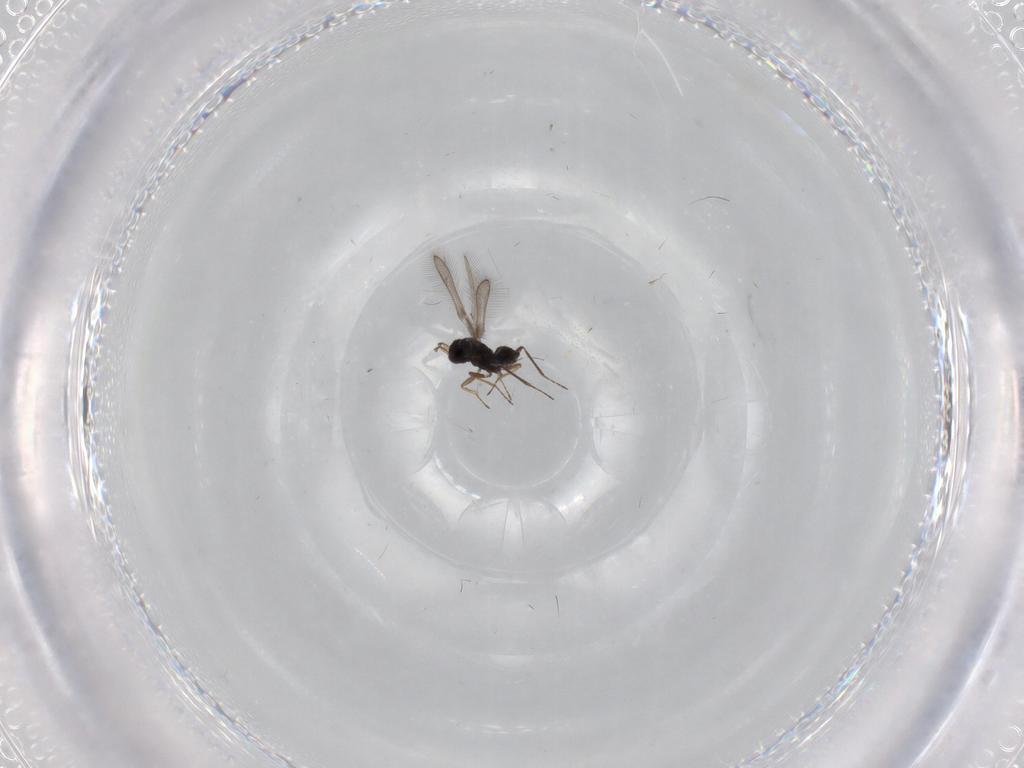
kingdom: Animalia
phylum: Arthropoda
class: Insecta
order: Hymenoptera
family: Mymaridae
